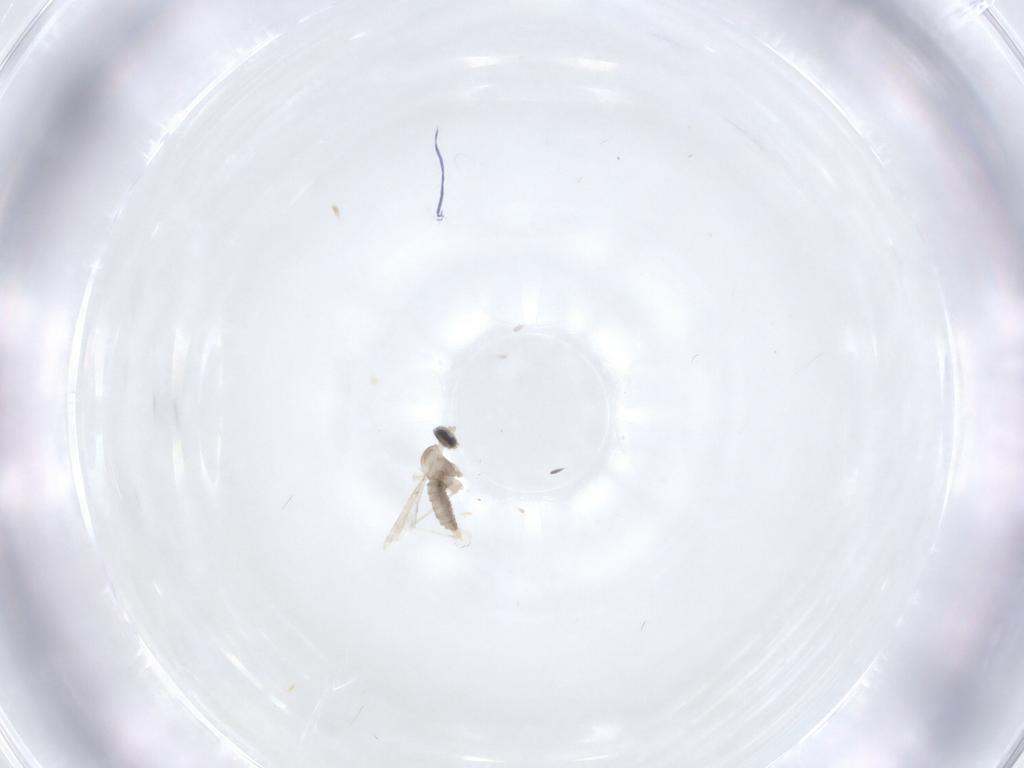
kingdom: Animalia
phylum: Arthropoda
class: Insecta
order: Diptera
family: Cecidomyiidae
